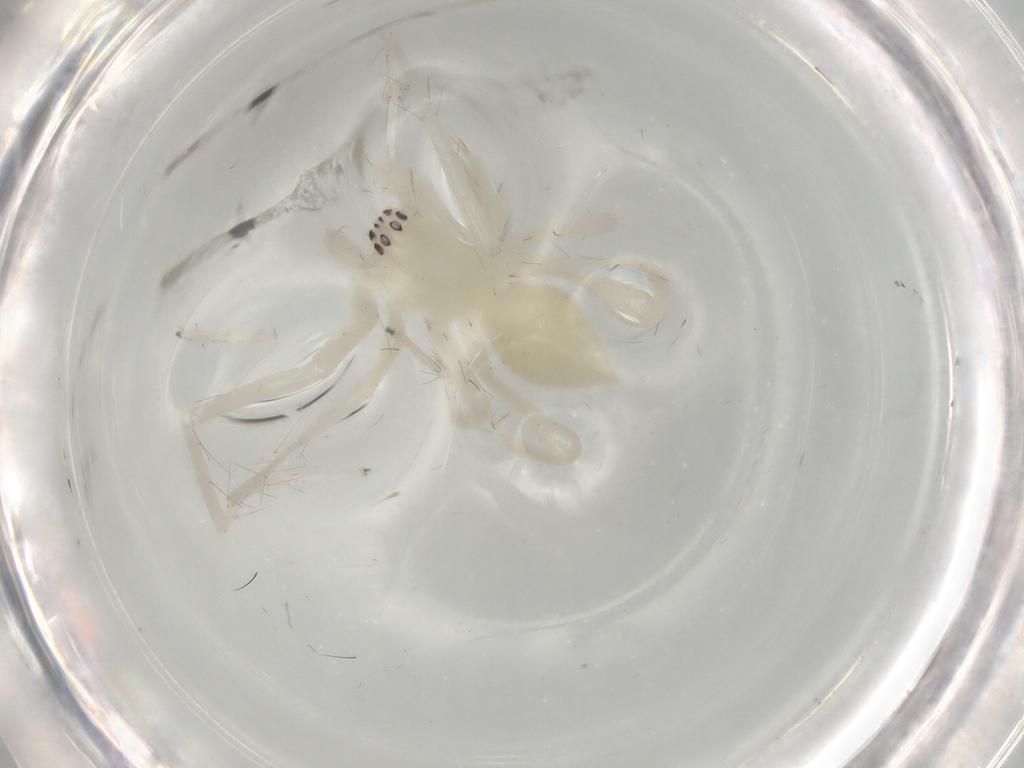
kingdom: Animalia
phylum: Arthropoda
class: Arachnida
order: Araneae
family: Anyphaenidae
